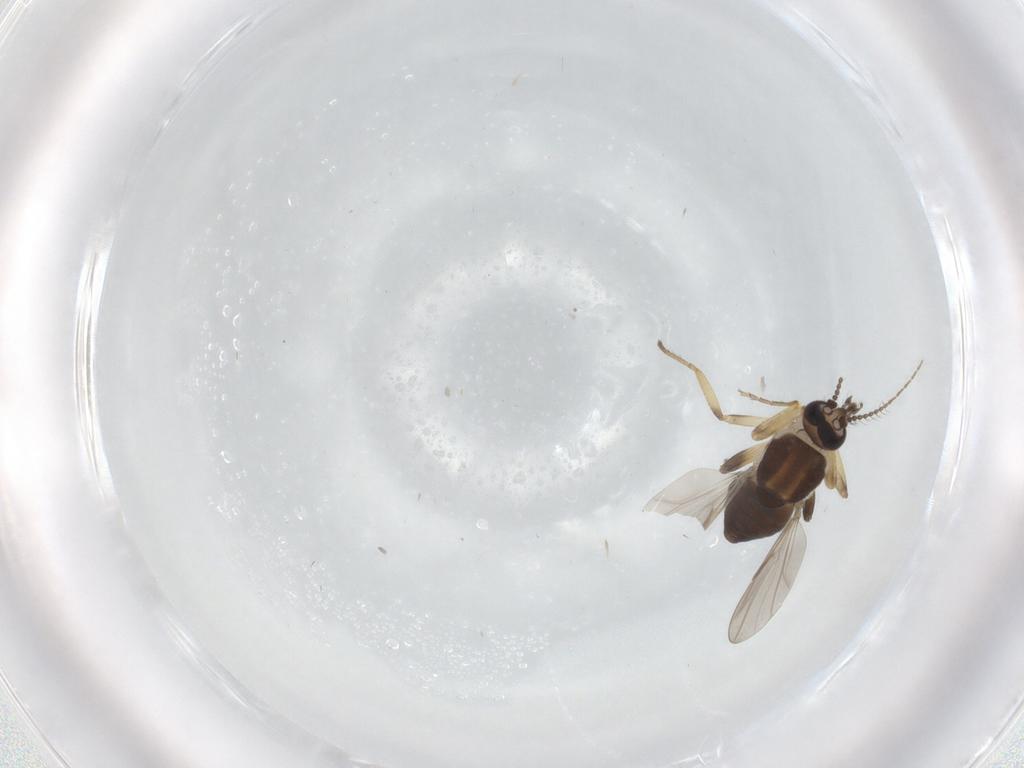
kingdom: Animalia
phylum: Arthropoda
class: Insecta
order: Diptera
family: Ceratopogonidae
